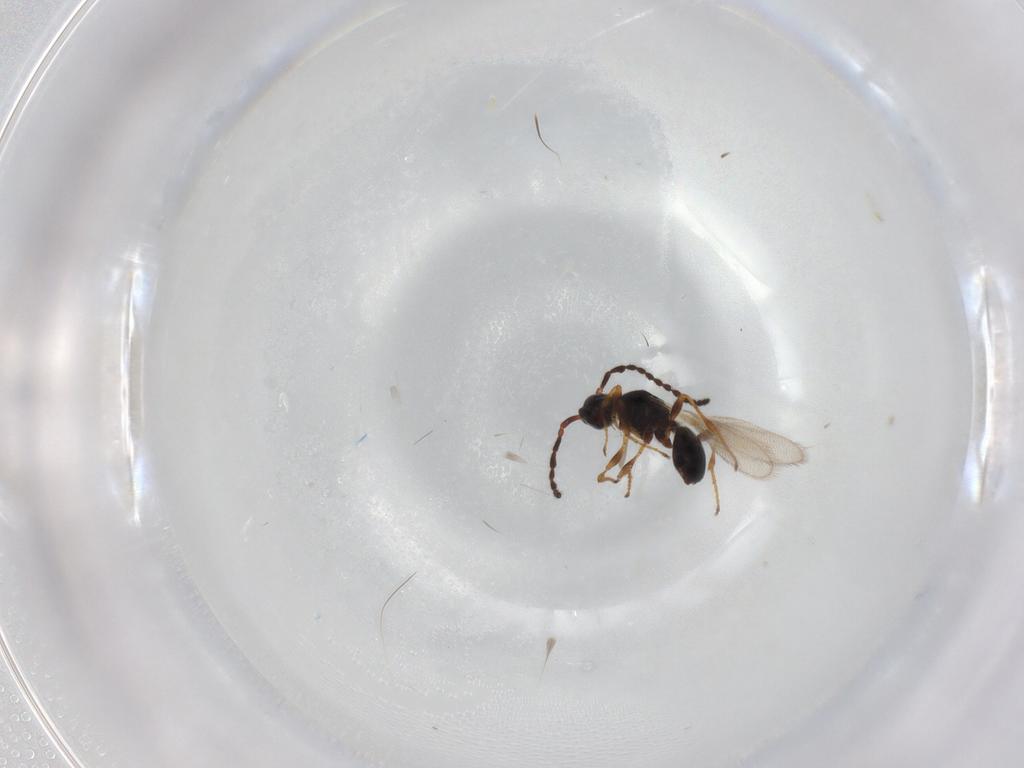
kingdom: Animalia
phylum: Arthropoda
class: Insecta
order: Hymenoptera
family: Diapriidae
